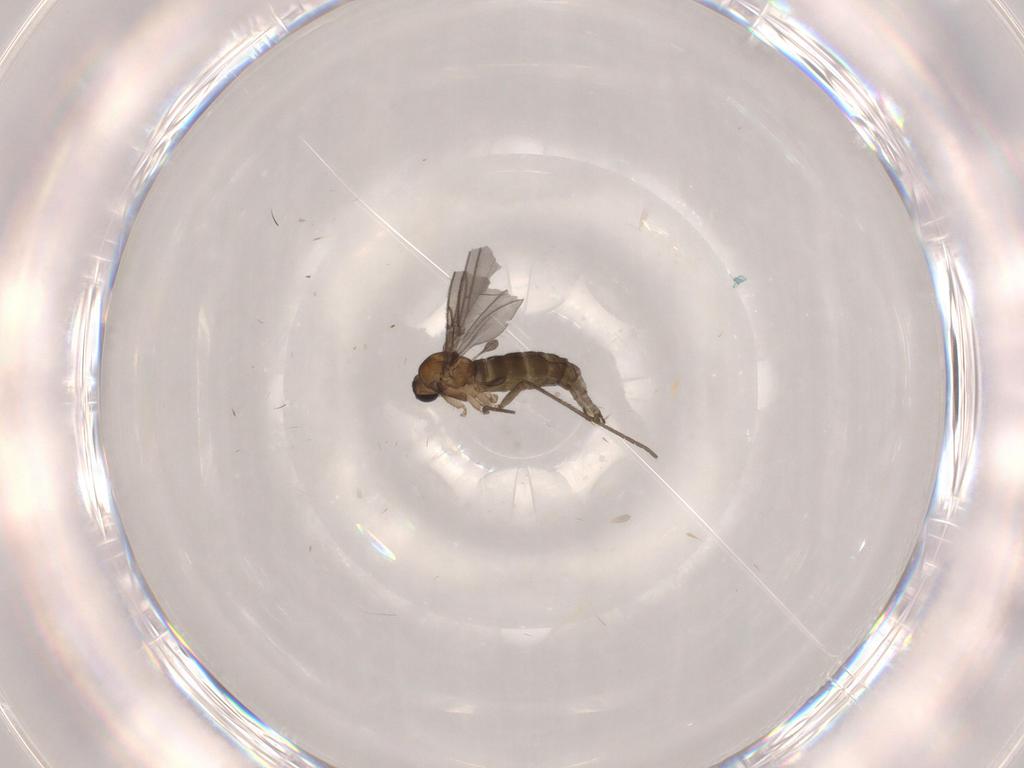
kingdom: Animalia
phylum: Arthropoda
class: Insecta
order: Diptera
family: Sciaridae
